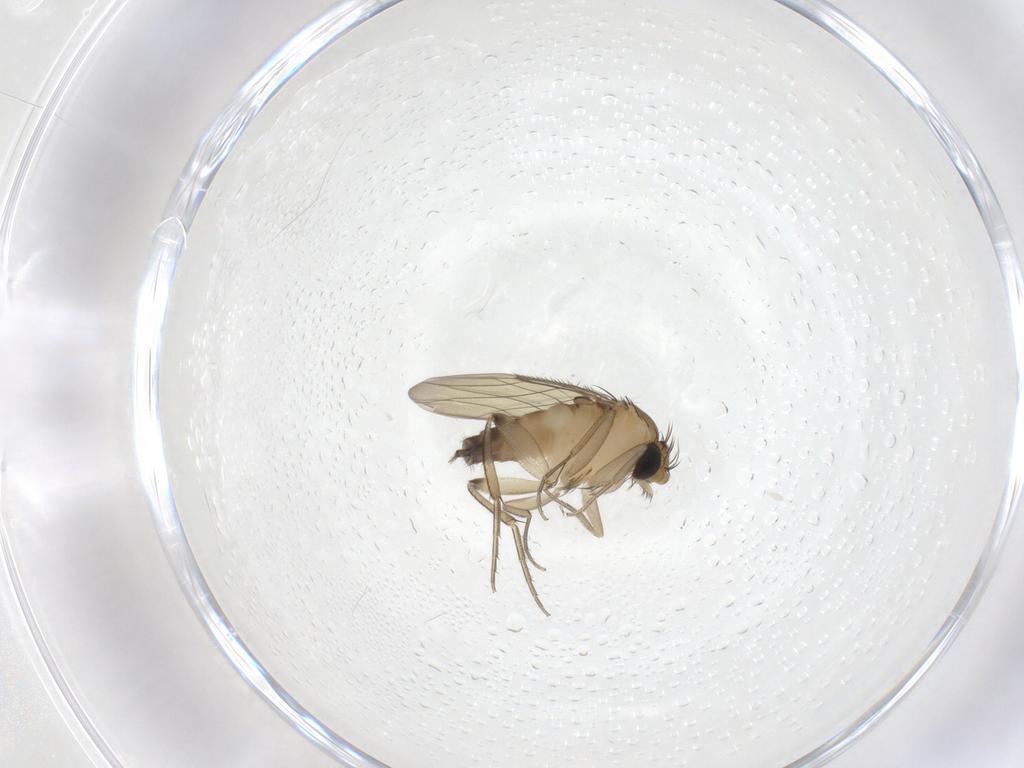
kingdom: Animalia
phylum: Arthropoda
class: Insecta
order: Diptera
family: Phoridae
